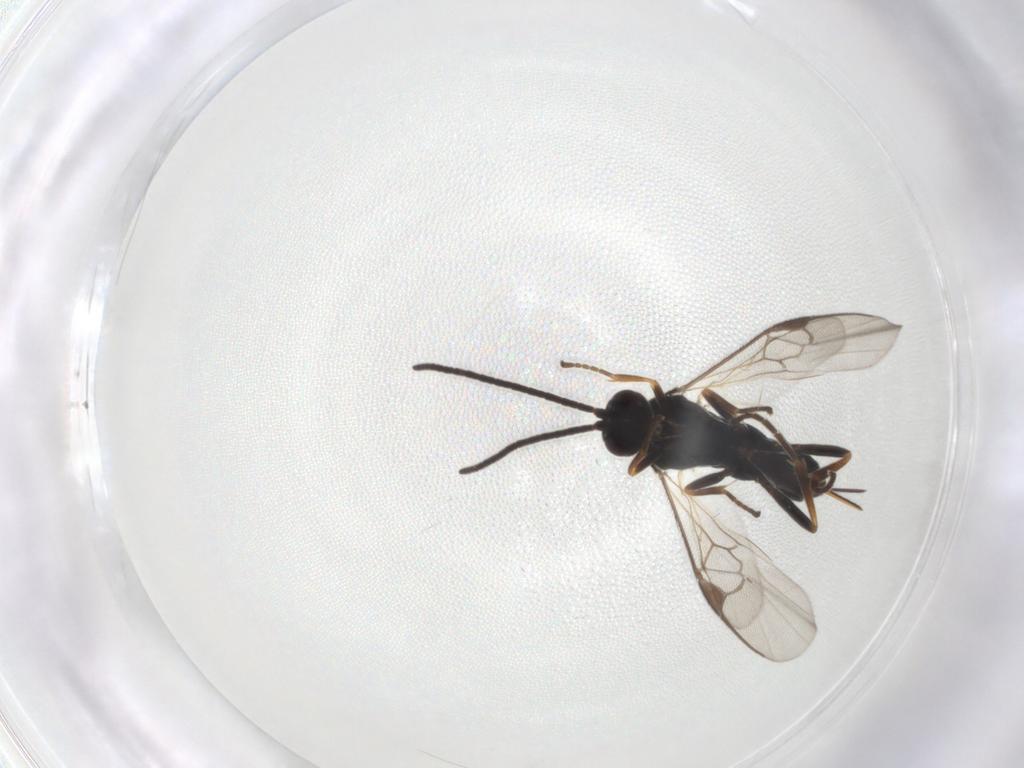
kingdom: Animalia
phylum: Arthropoda
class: Insecta
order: Hymenoptera
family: Braconidae
